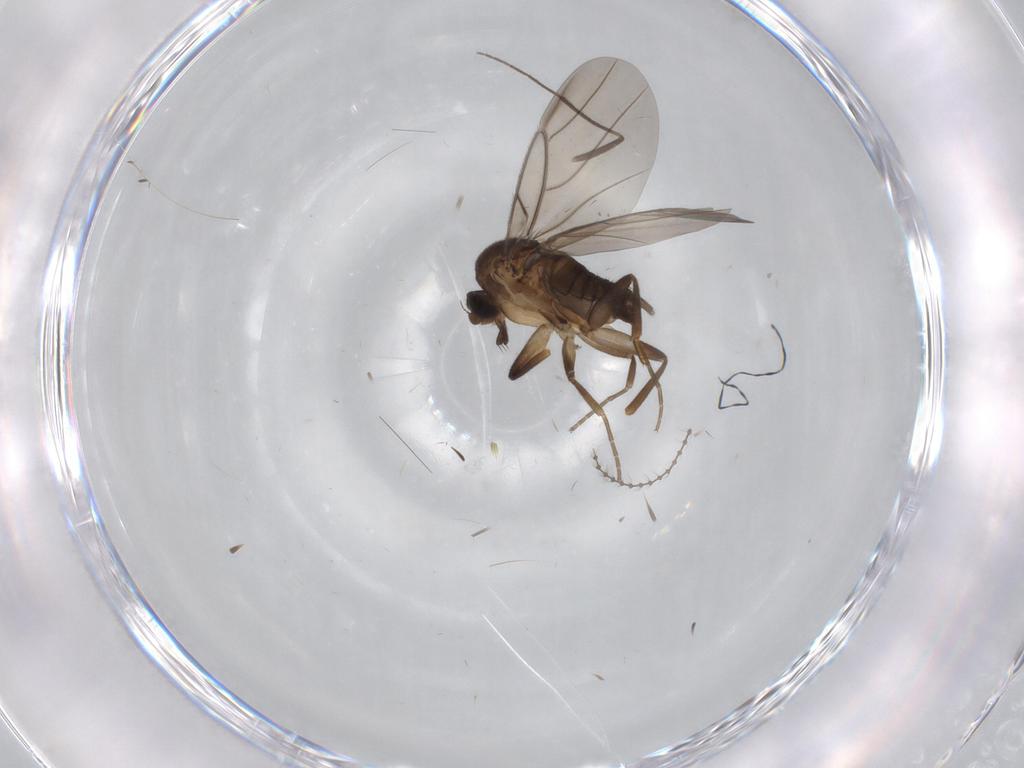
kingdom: Animalia
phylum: Arthropoda
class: Insecta
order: Diptera
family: Phoridae
